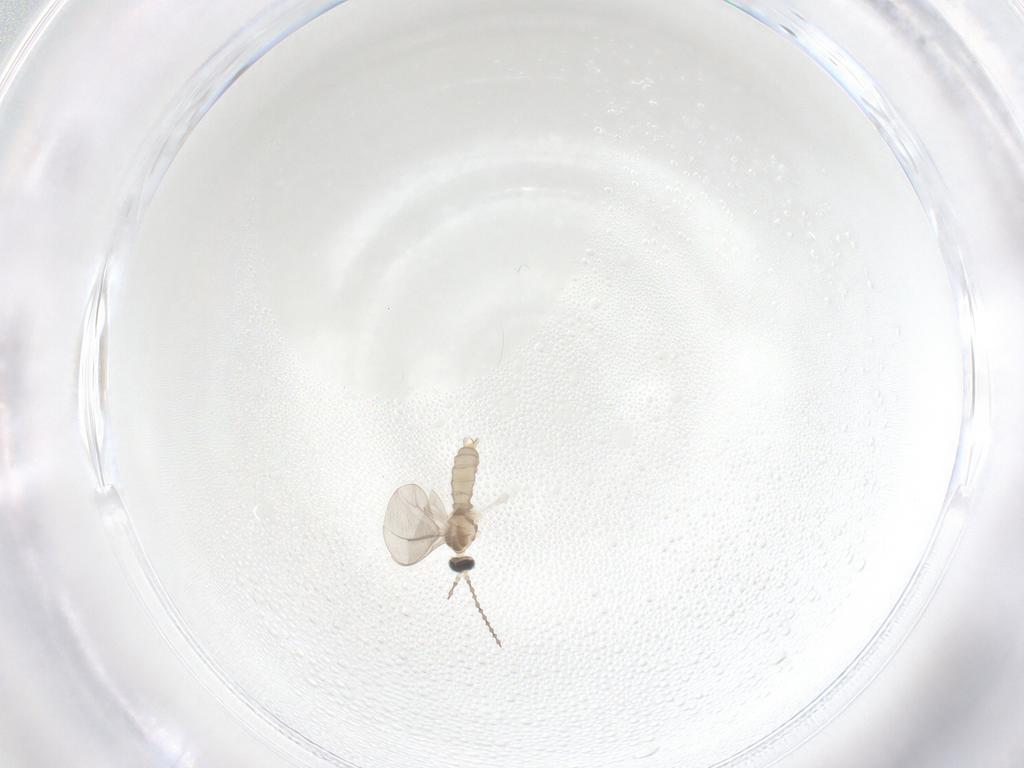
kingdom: Animalia
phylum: Arthropoda
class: Insecta
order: Diptera
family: Cecidomyiidae
